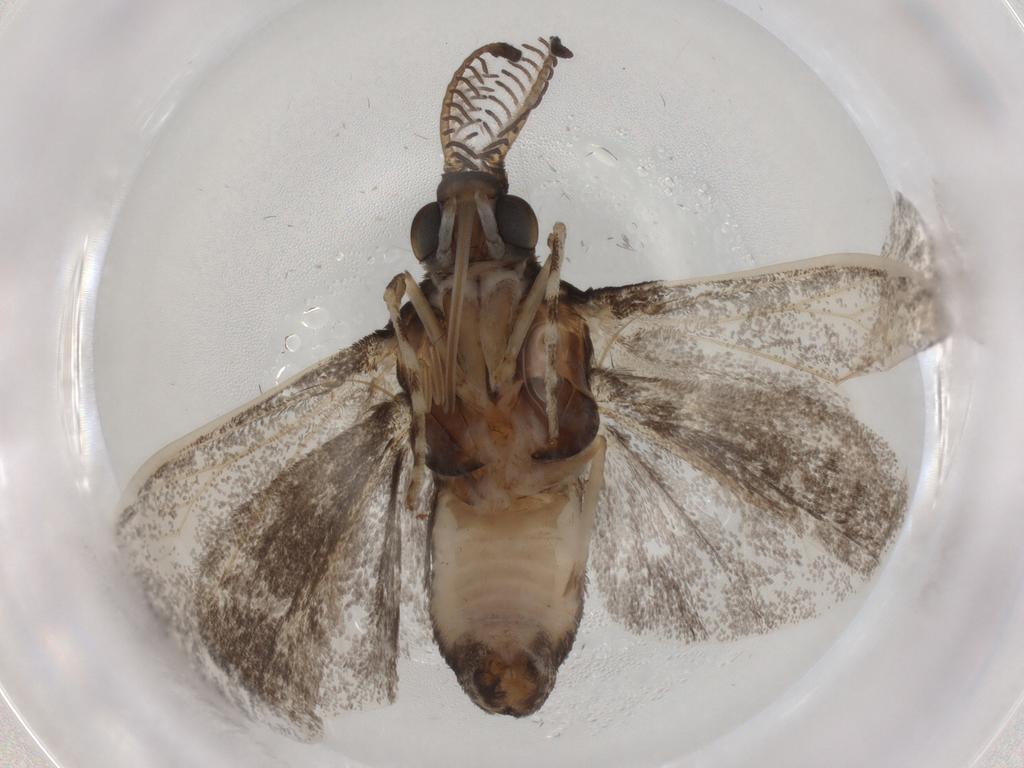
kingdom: Animalia
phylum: Arthropoda
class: Insecta
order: Lepidoptera
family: Zygaenidae
